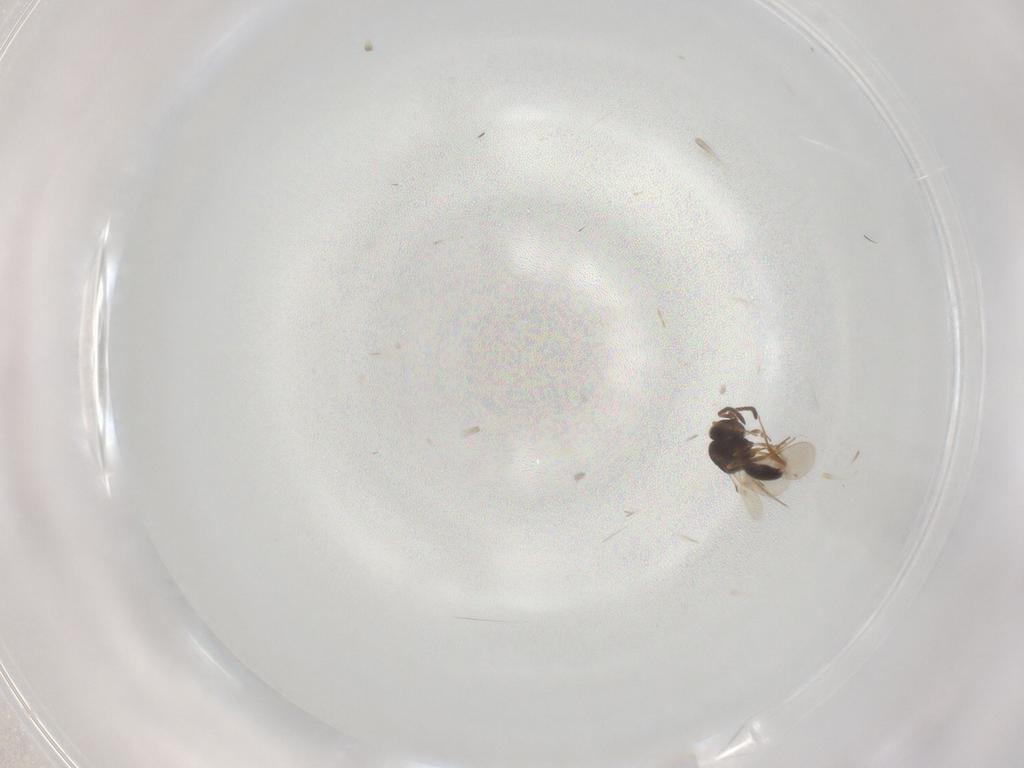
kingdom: Animalia
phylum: Arthropoda
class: Insecta
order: Hymenoptera
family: Scelionidae
